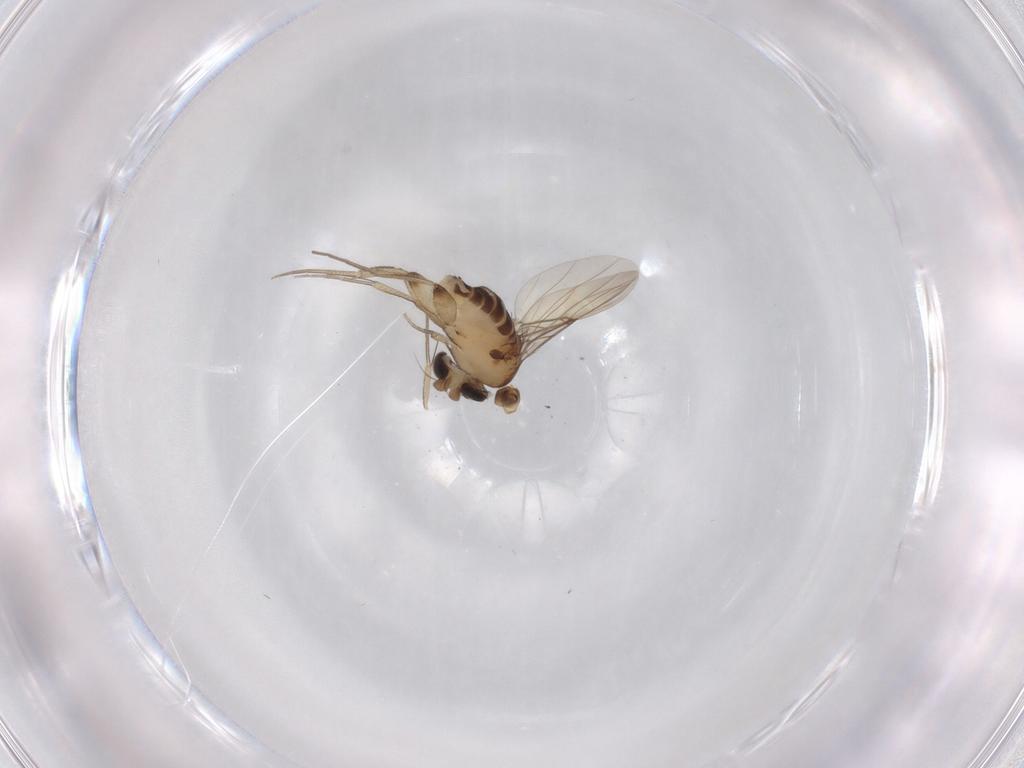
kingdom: Animalia
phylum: Arthropoda
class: Insecta
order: Diptera
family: Phoridae
